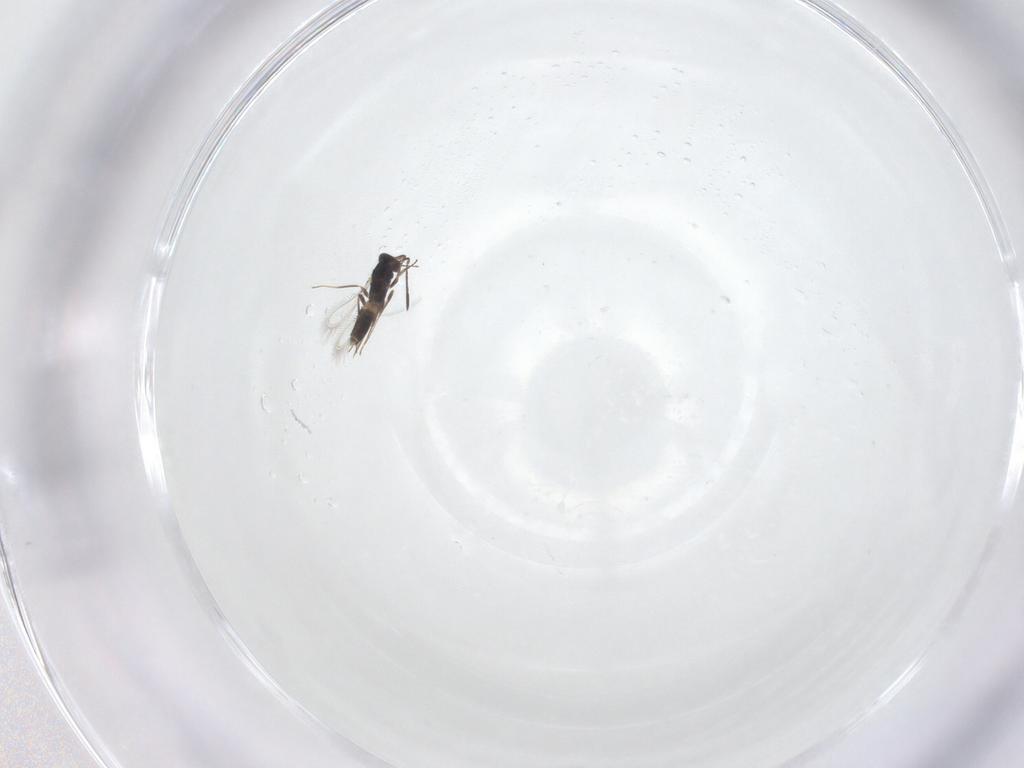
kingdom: Animalia
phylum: Arthropoda
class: Insecta
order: Hymenoptera
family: Mymaridae
